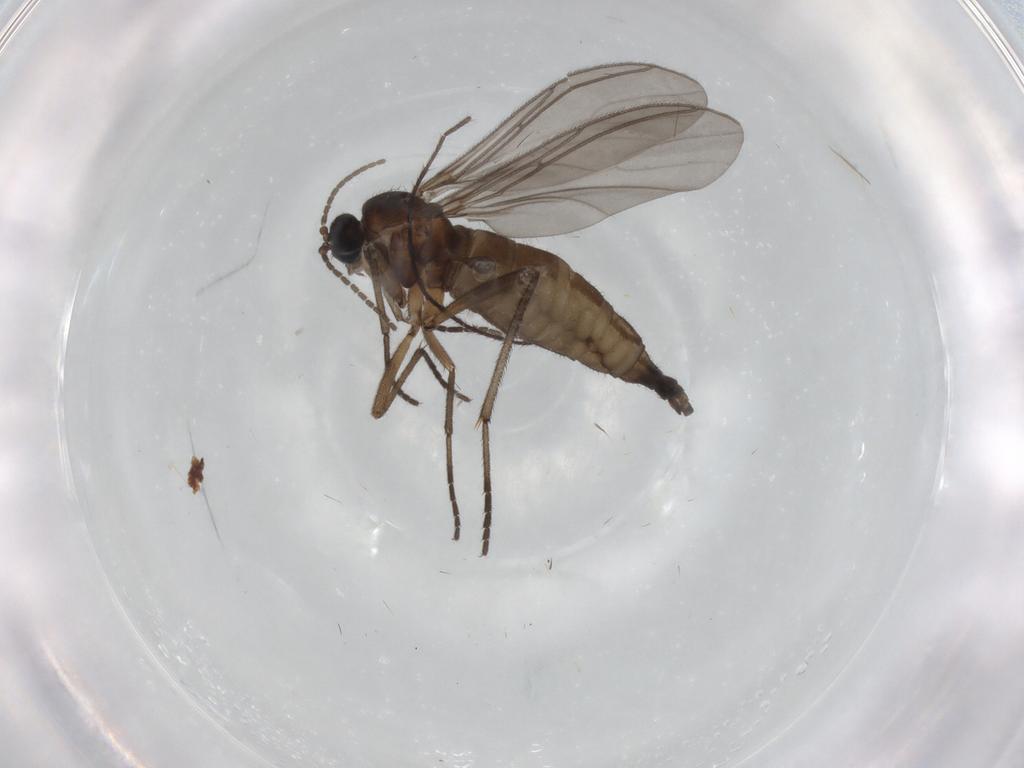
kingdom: Animalia
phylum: Arthropoda
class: Insecta
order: Diptera
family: Sciaridae
